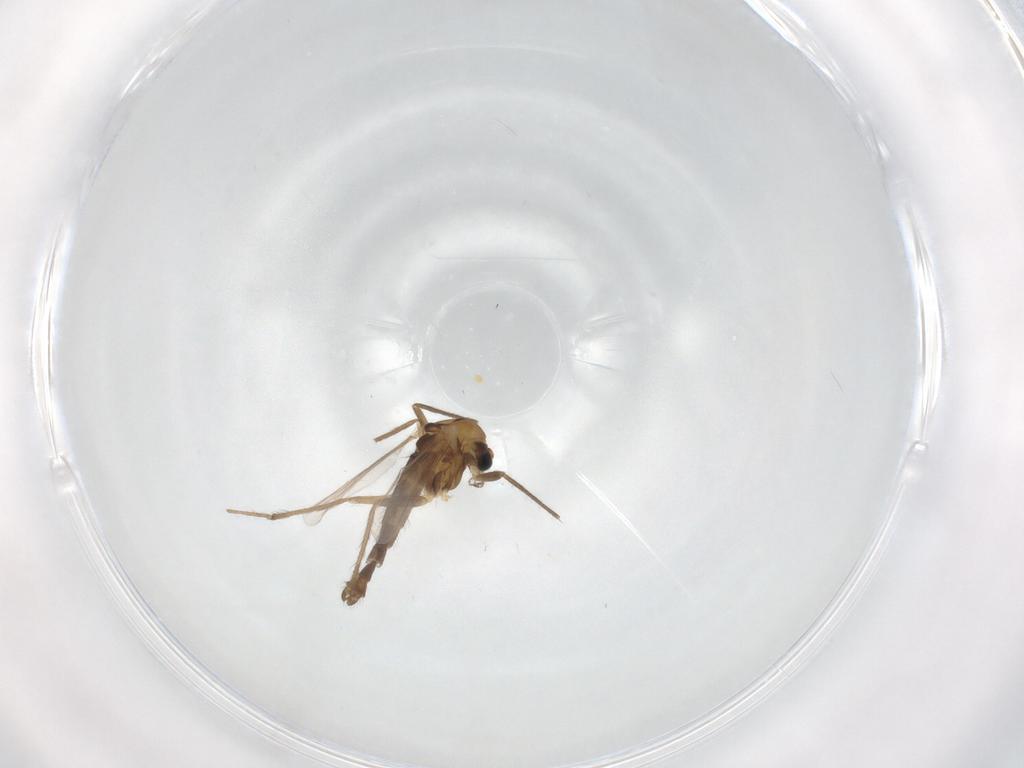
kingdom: Animalia
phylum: Arthropoda
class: Insecta
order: Diptera
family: Chironomidae
